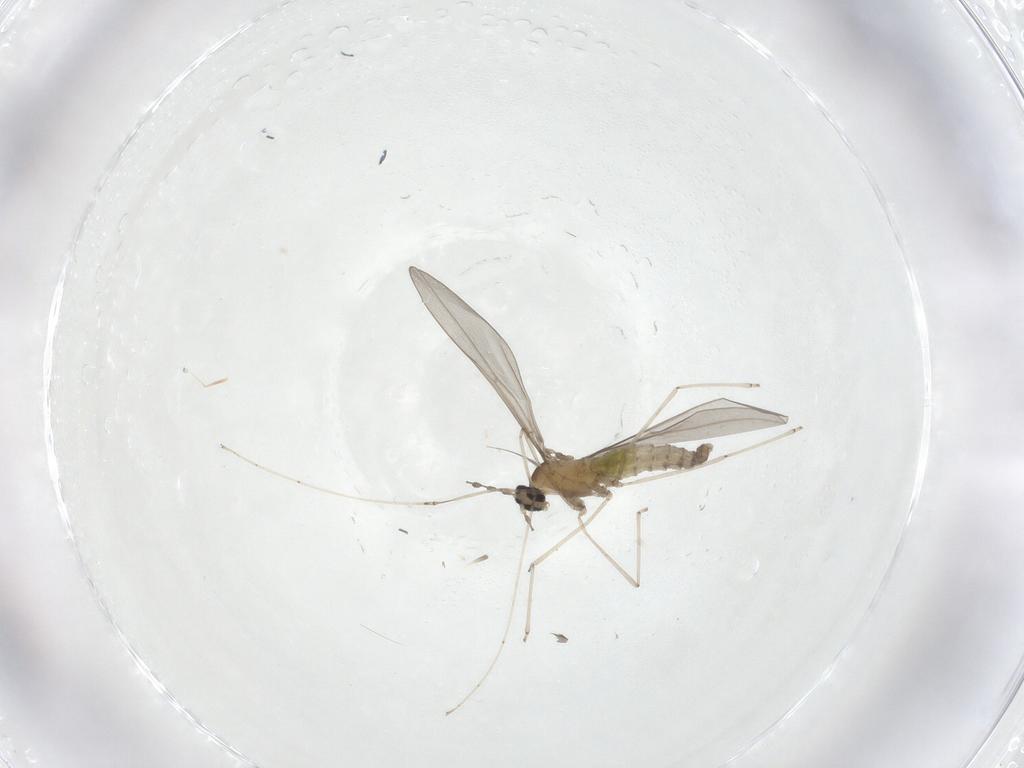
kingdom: Animalia
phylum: Arthropoda
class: Insecta
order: Diptera
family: Cecidomyiidae
